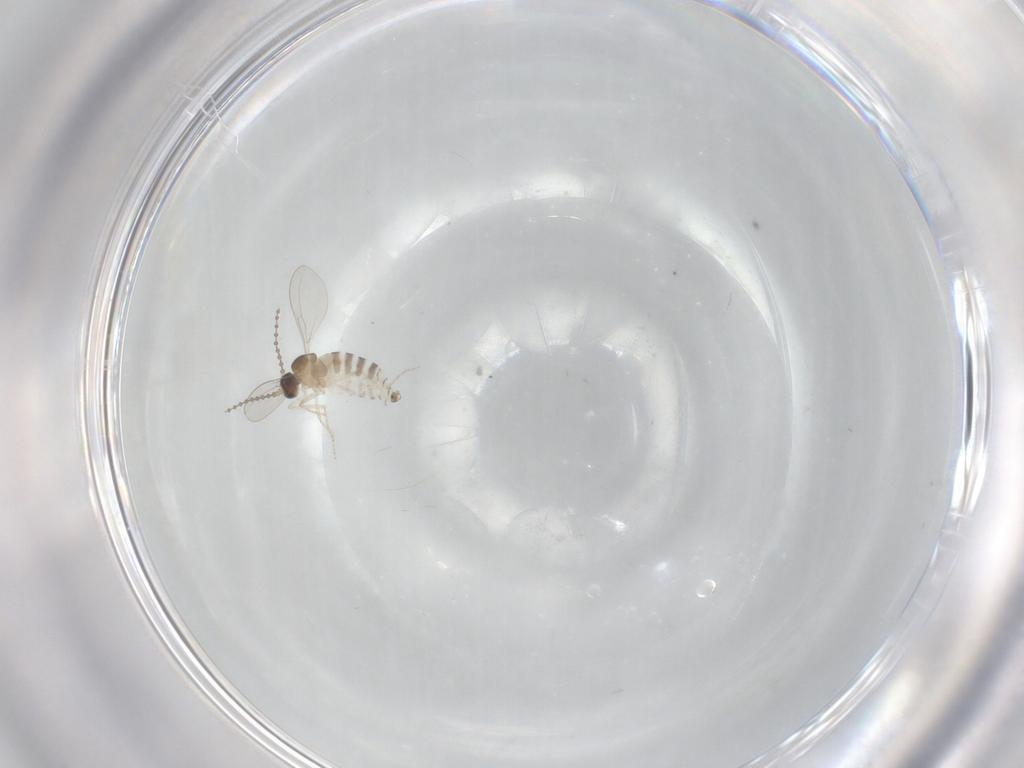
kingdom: Animalia
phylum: Arthropoda
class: Insecta
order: Diptera
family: Cecidomyiidae
